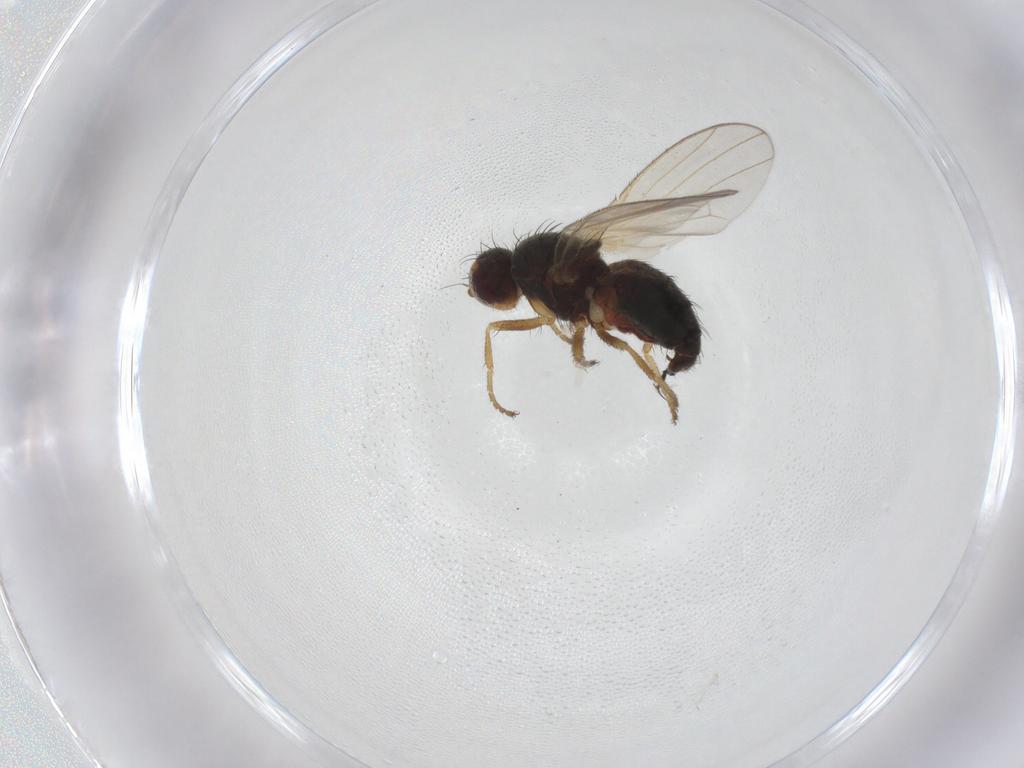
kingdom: Animalia
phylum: Arthropoda
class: Insecta
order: Diptera
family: Heleomyzidae
